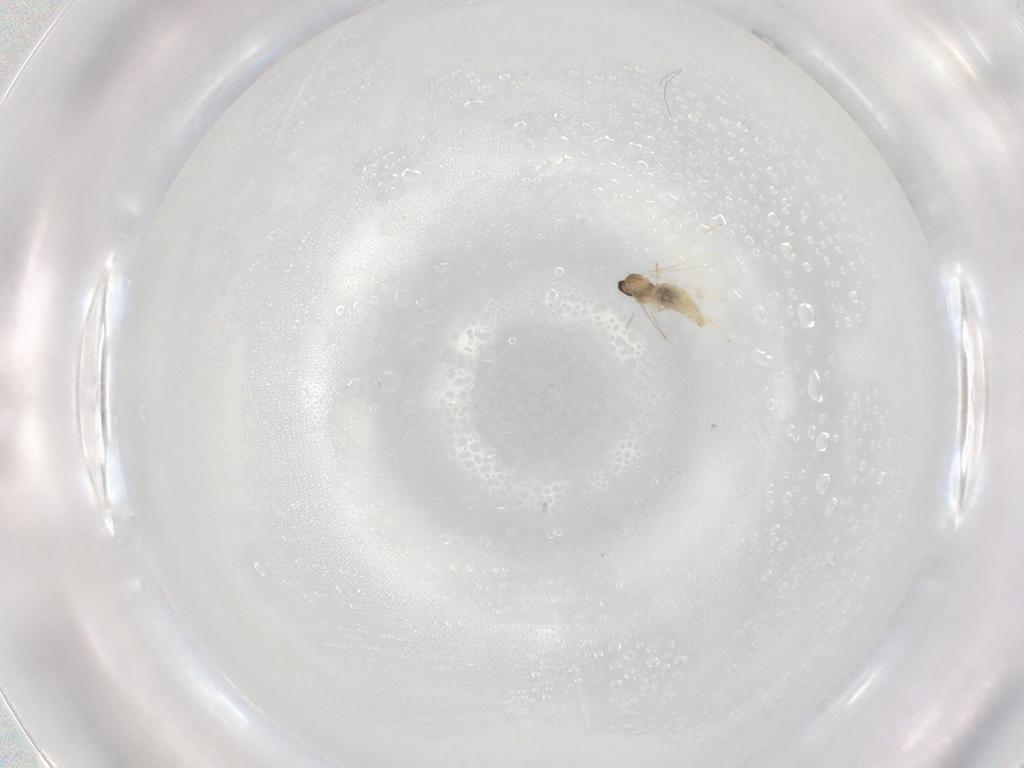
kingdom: Animalia
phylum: Arthropoda
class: Insecta
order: Diptera
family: Cecidomyiidae
